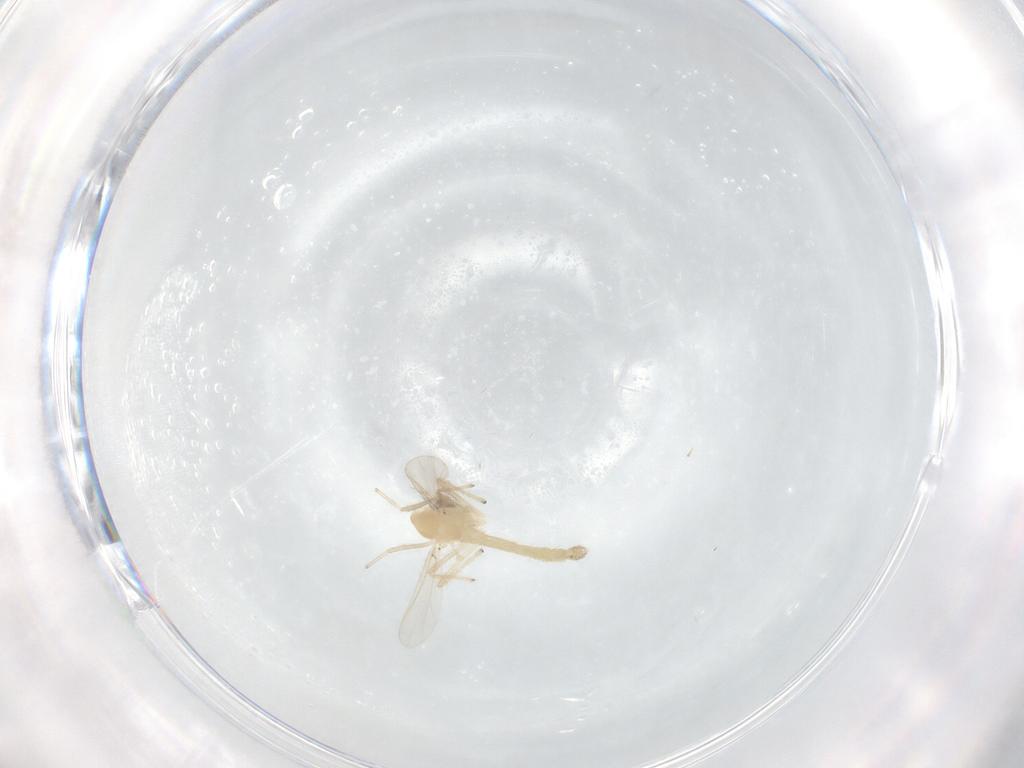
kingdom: Animalia
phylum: Arthropoda
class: Insecta
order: Diptera
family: Chironomidae
